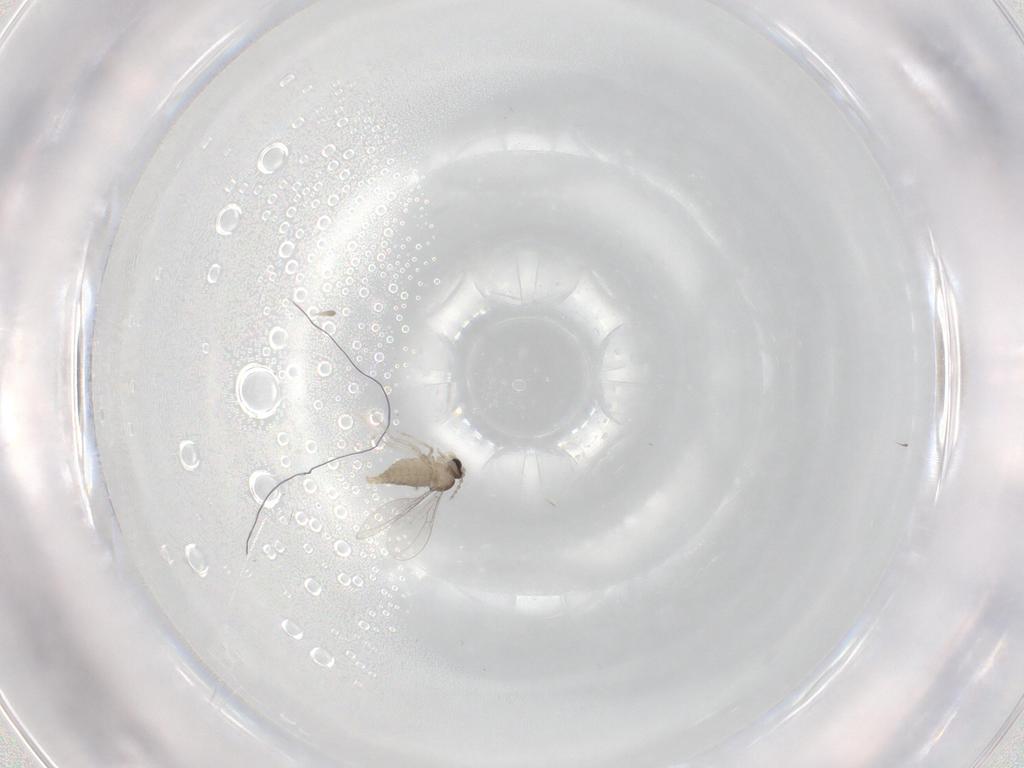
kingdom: Animalia
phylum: Arthropoda
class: Insecta
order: Diptera
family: Cecidomyiidae
